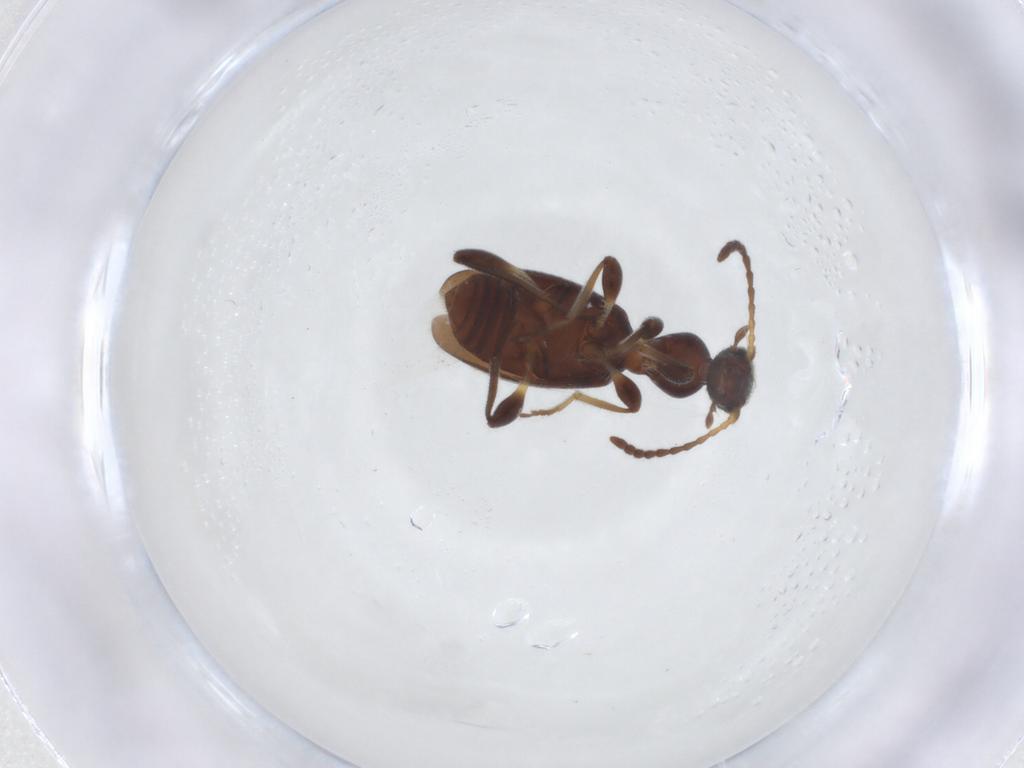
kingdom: Animalia
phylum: Arthropoda
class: Insecta
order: Coleoptera
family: Anthicidae
